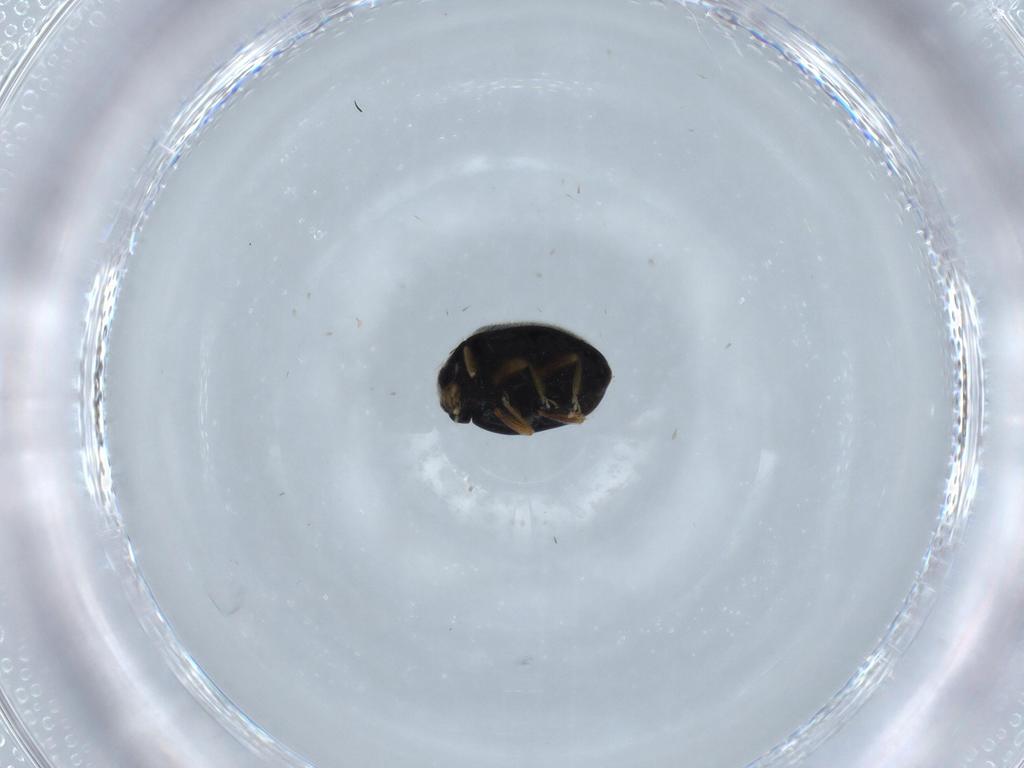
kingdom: Animalia
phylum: Arthropoda
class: Insecta
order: Coleoptera
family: Coccinellidae
